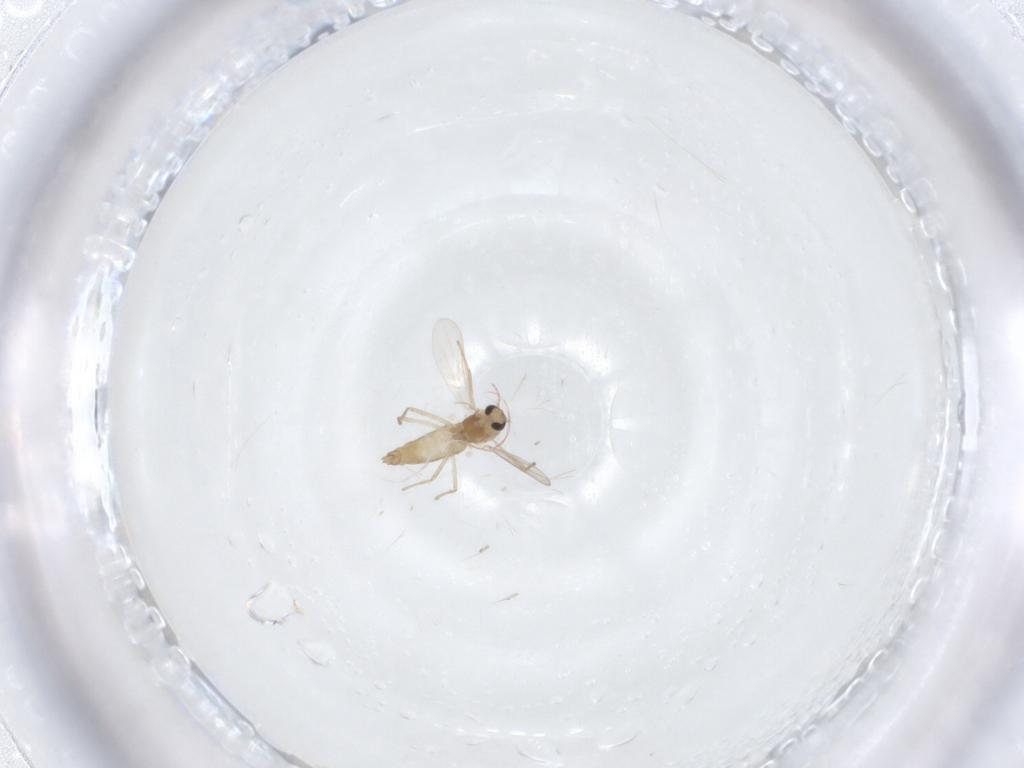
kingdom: Animalia
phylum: Arthropoda
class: Insecta
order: Diptera
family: Chironomidae
